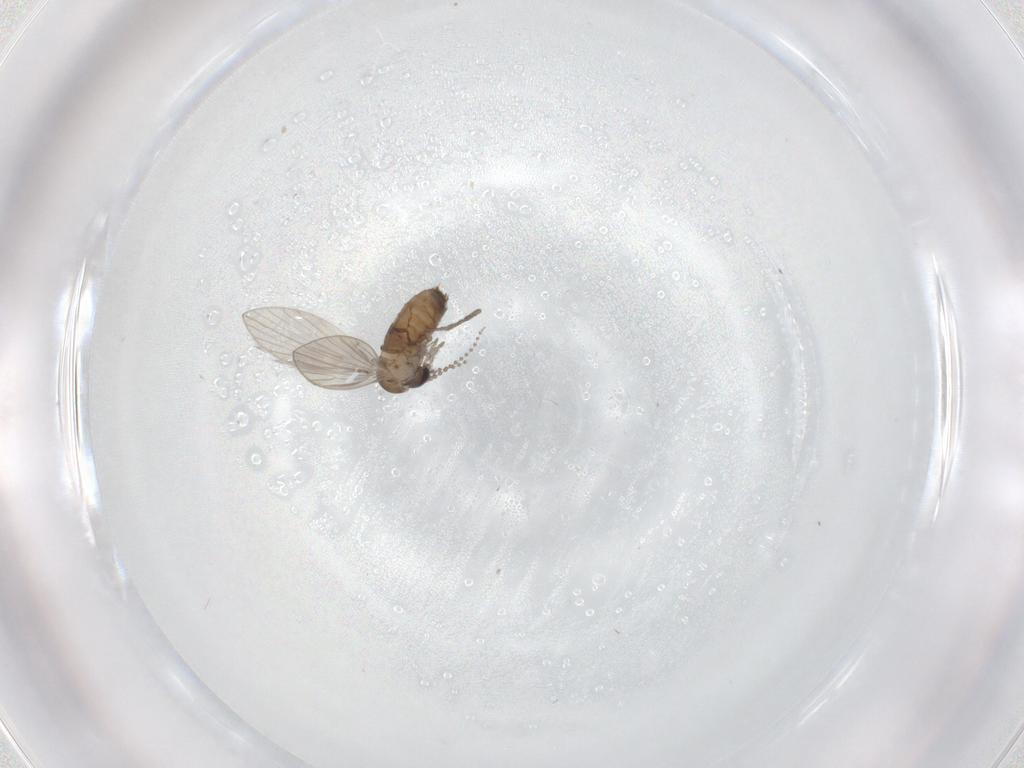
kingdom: Animalia
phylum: Arthropoda
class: Insecta
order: Diptera
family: Psychodidae
